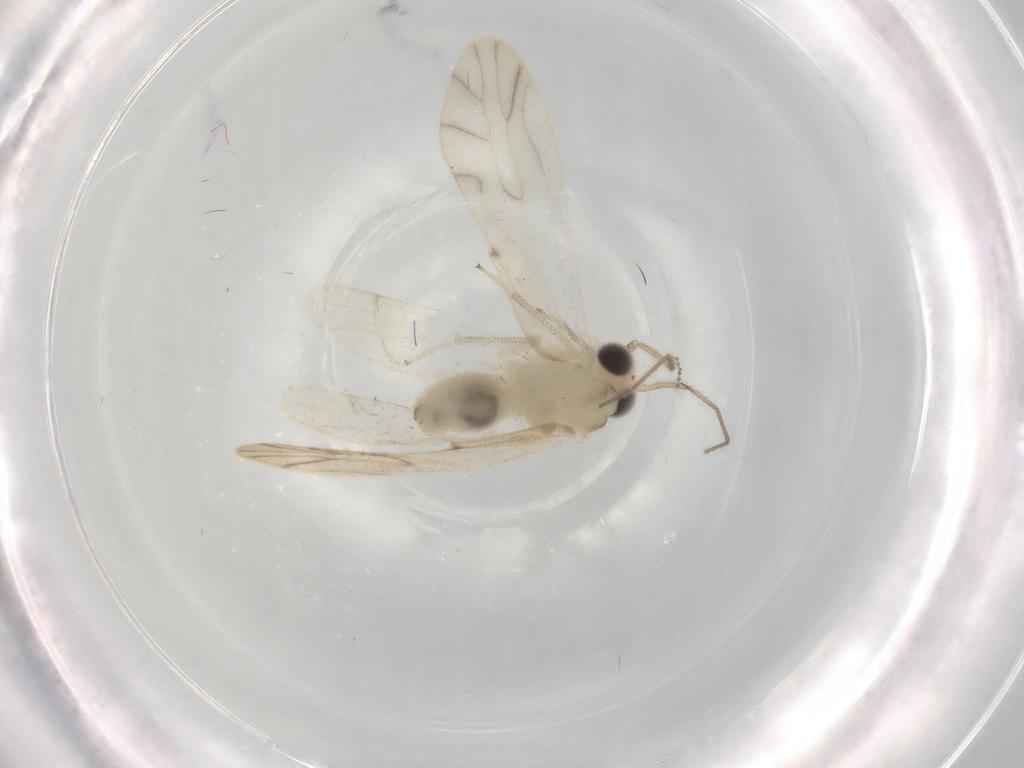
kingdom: Animalia
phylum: Arthropoda
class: Insecta
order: Psocodea
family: Caeciliusidae
